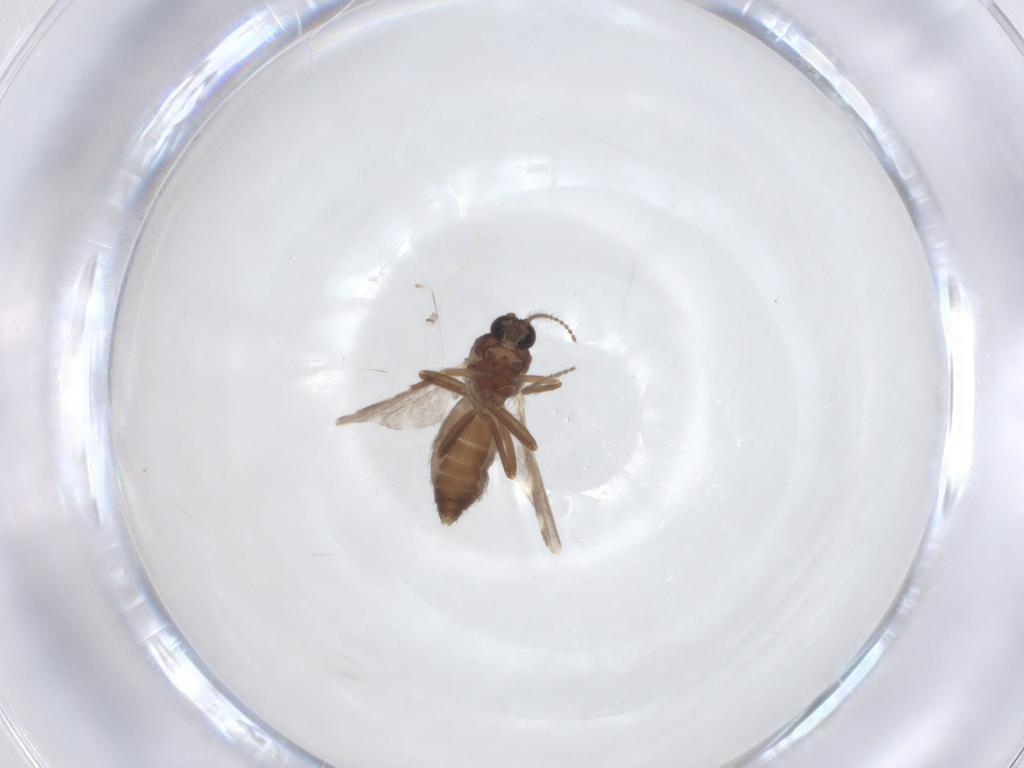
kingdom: Animalia
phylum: Arthropoda
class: Insecta
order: Diptera
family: Ceratopogonidae
